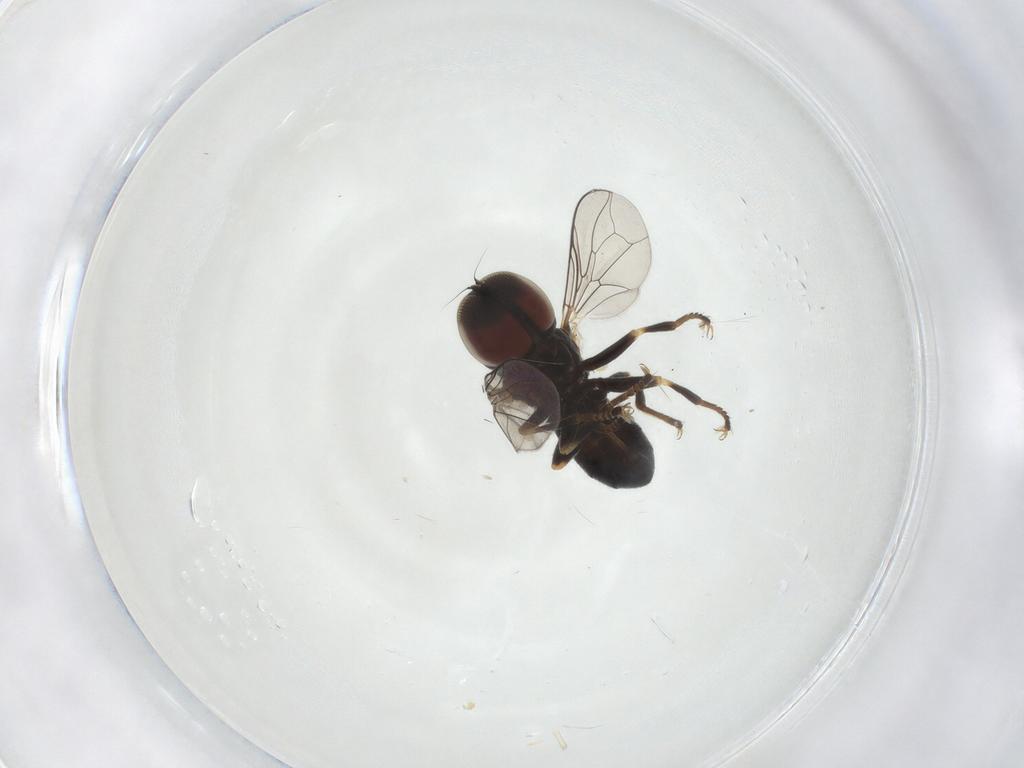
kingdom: Animalia
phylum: Arthropoda
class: Insecta
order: Diptera
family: Pipunculidae
